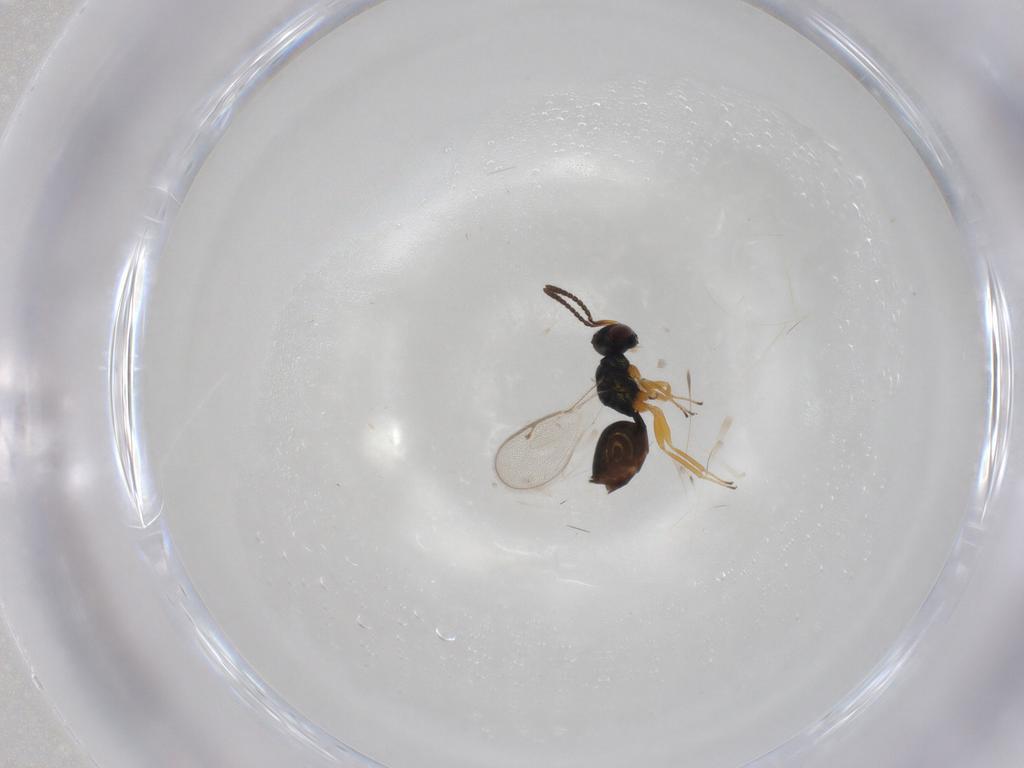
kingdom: Animalia
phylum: Arthropoda
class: Insecta
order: Hymenoptera
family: Pteromalidae
